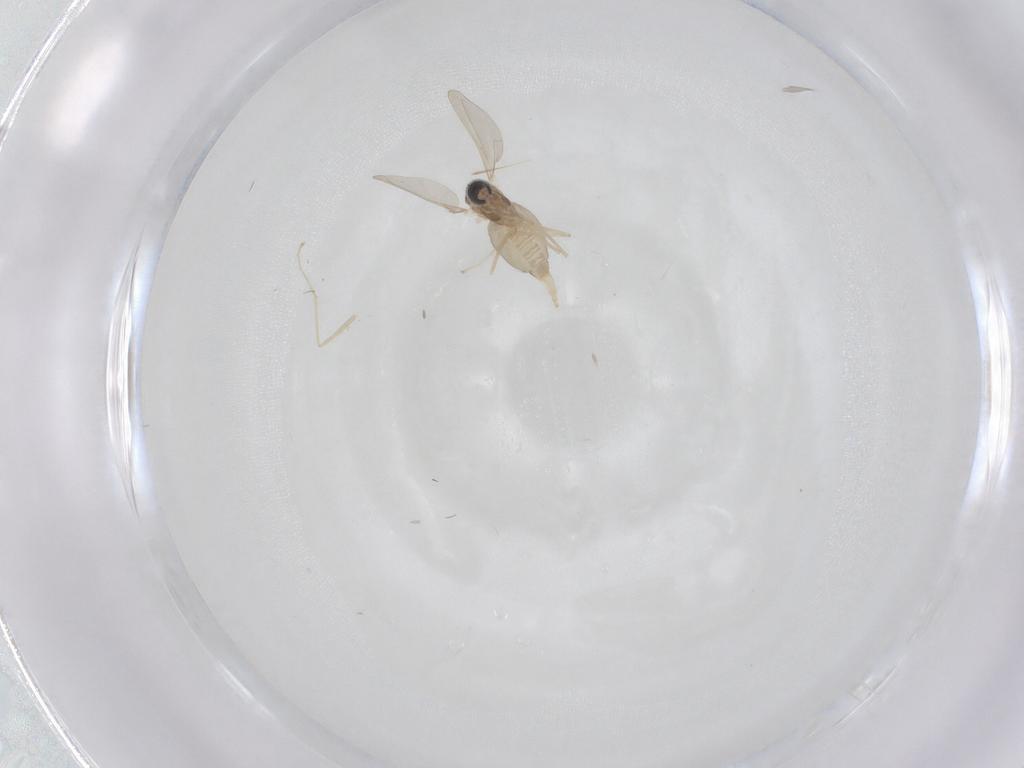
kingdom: Animalia
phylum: Arthropoda
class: Insecta
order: Diptera
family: Cecidomyiidae
